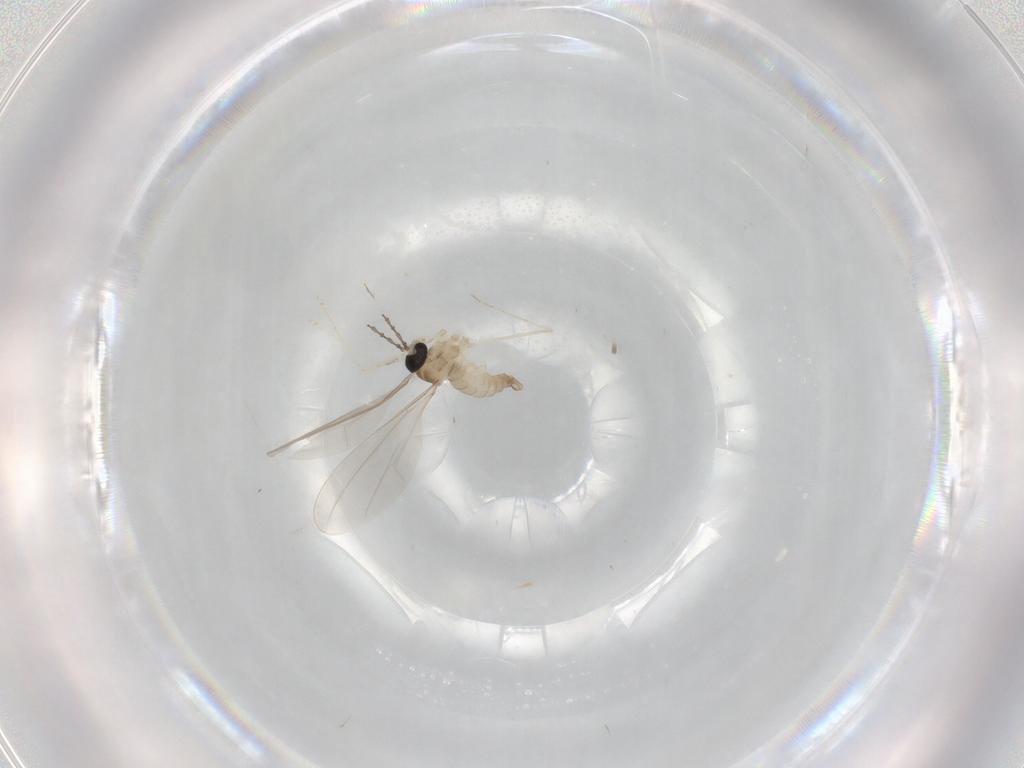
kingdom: Animalia
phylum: Arthropoda
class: Insecta
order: Diptera
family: Cecidomyiidae
